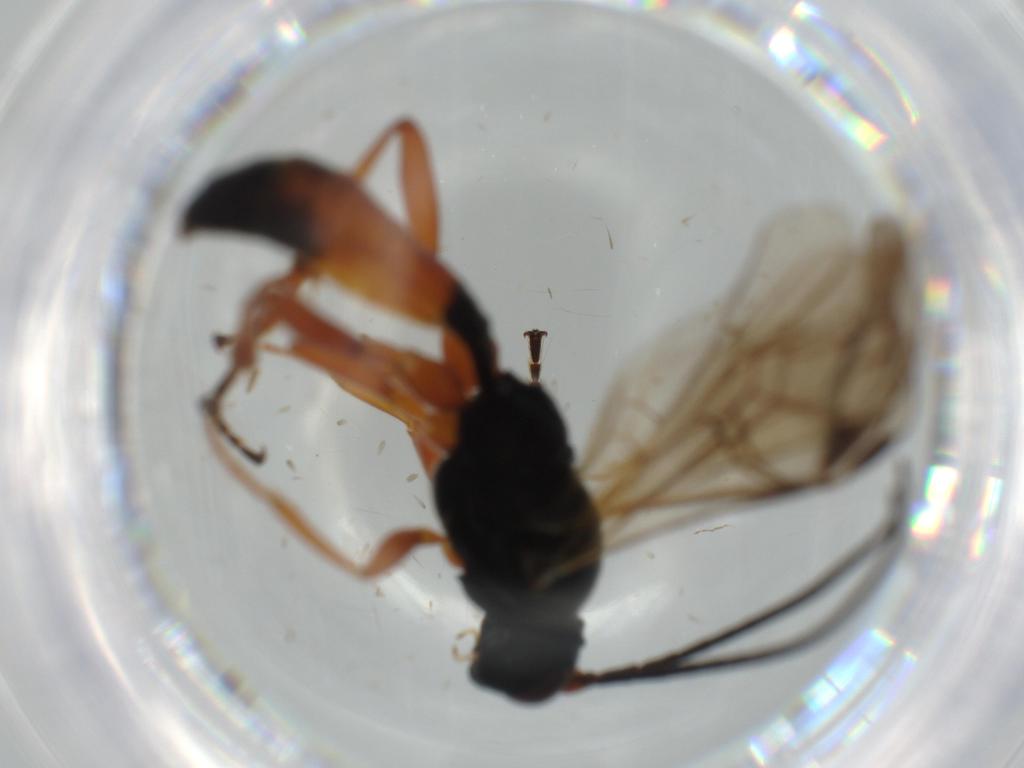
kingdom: Animalia
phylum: Arthropoda
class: Insecta
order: Hymenoptera
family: Platygastridae
